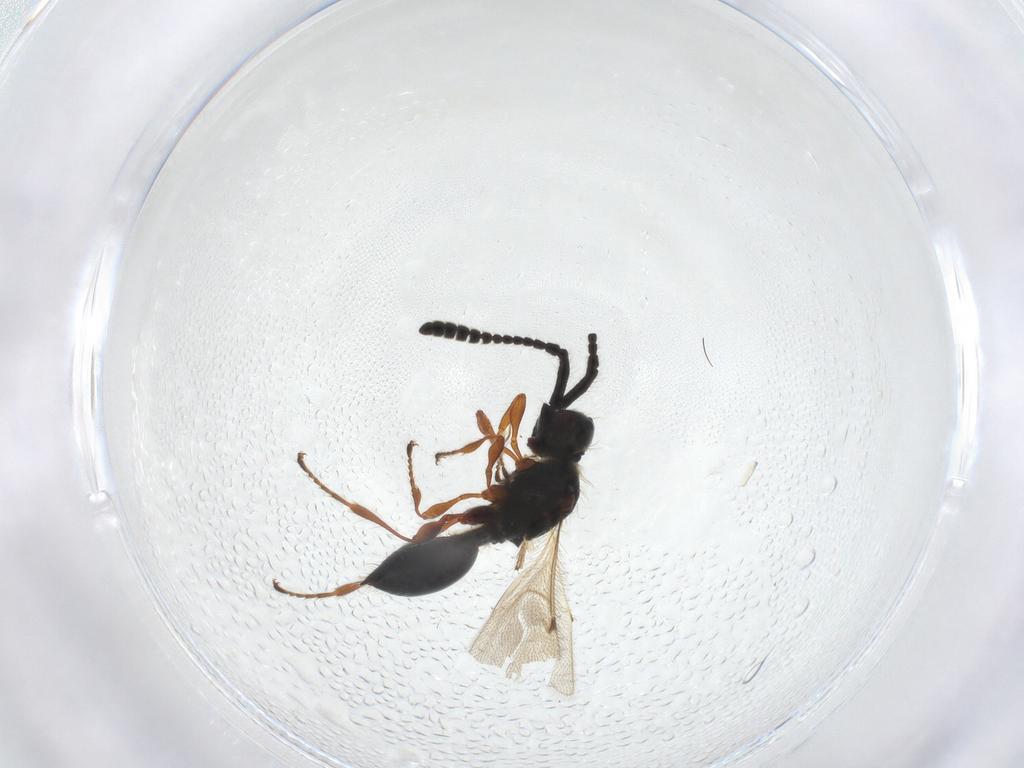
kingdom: Animalia
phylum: Arthropoda
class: Insecta
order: Hymenoptera
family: Diapriidae
